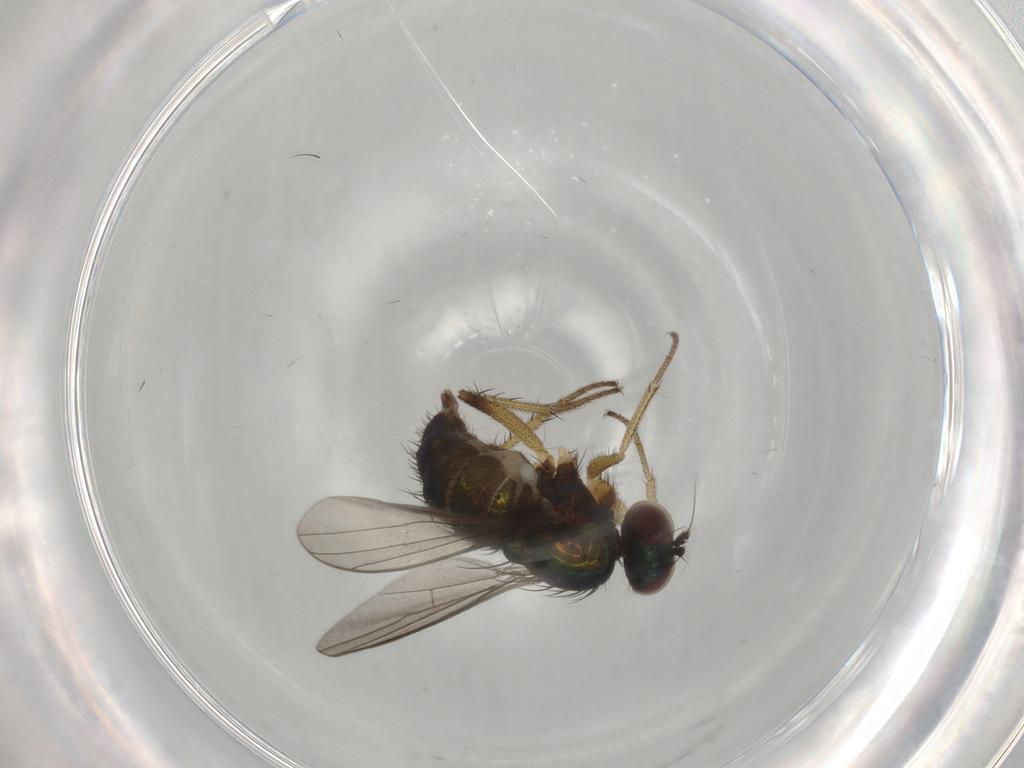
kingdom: Animalia
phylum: Arthropoda
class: Insecta
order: Diptera
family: Dolichopodidae
